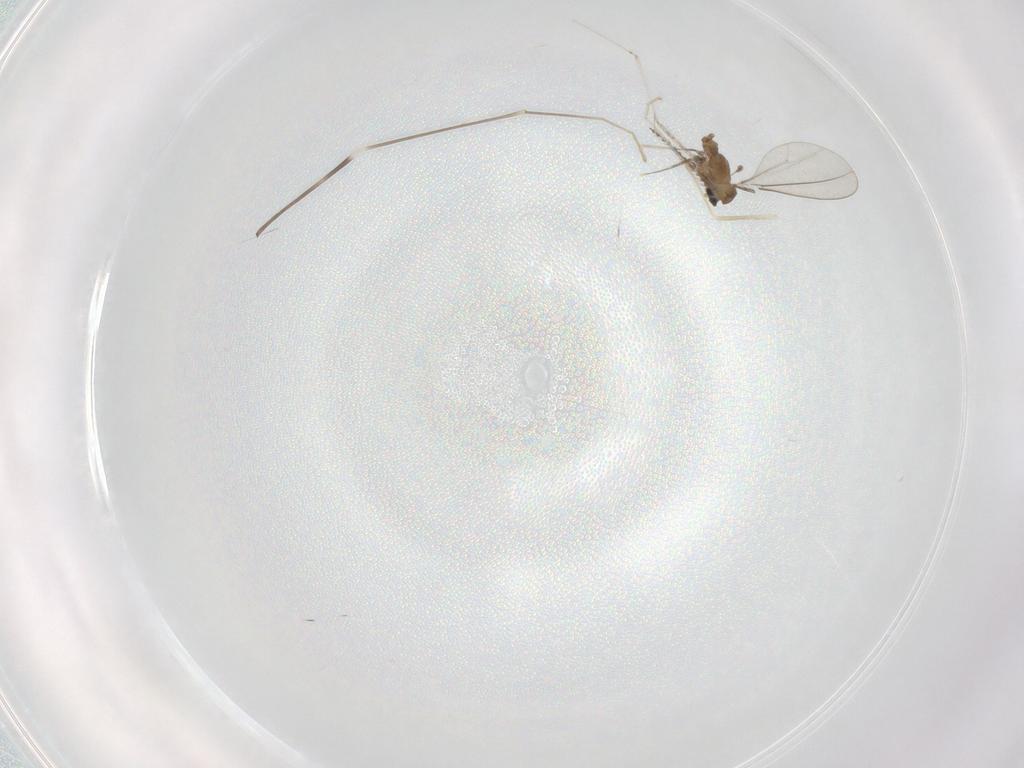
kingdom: Animalia
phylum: Arthropoda
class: Insecta
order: Diptera
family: Limoniidae
